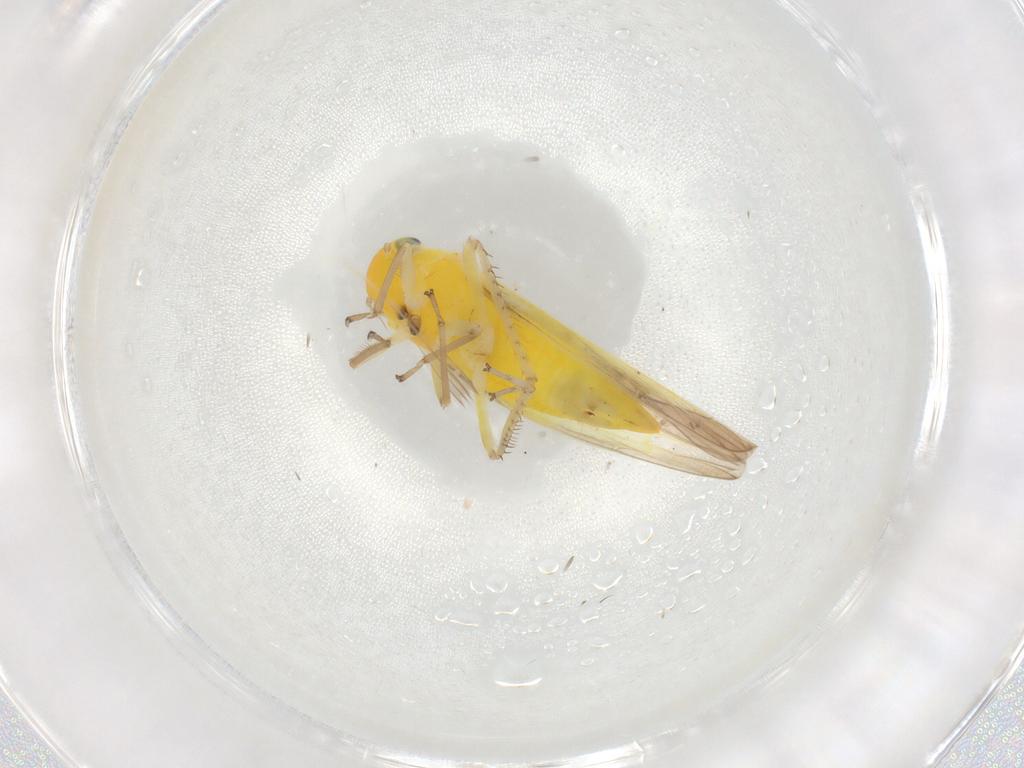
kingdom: Animalia
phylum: Arthropoda
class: Insecta
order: Hemiptera
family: Cicadellidae
